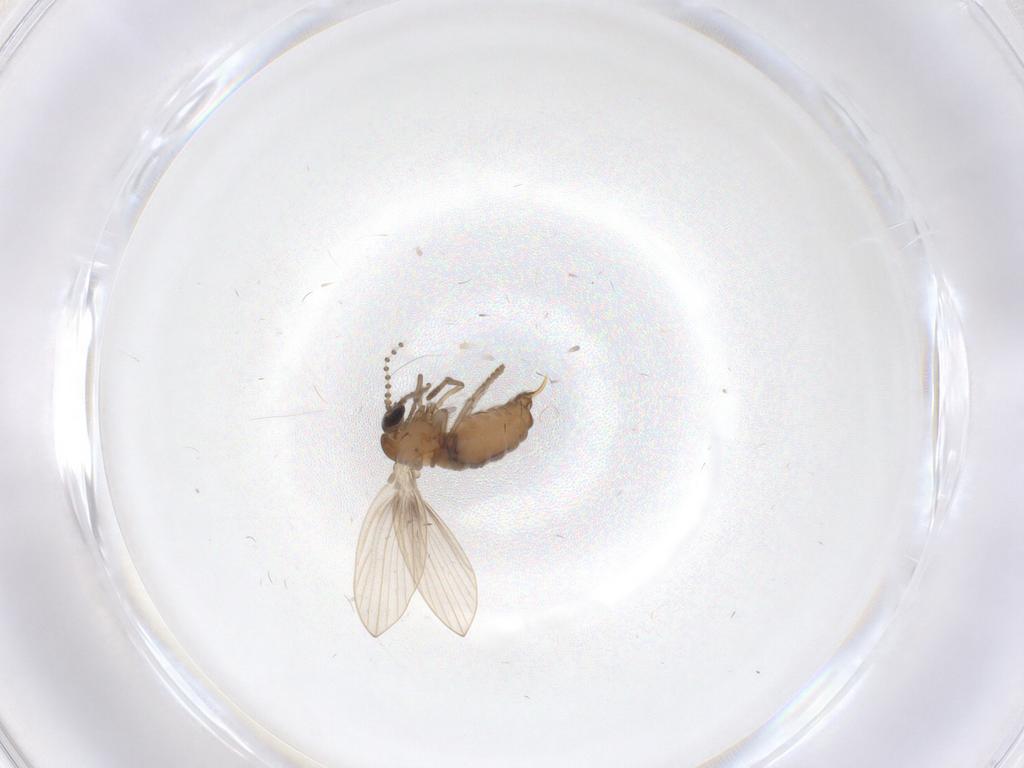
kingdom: Animalia
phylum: Arthropoda
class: Insecta
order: Diptera
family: Psychodidae
